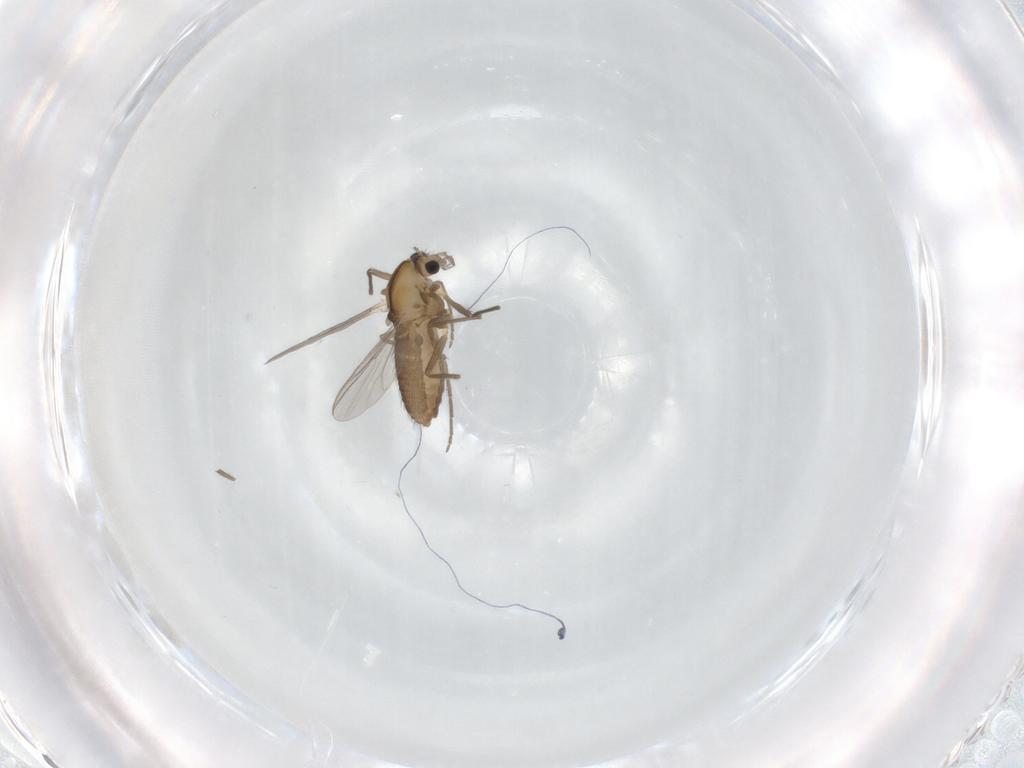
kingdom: Animalia
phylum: Arthropoda
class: Insecta
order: Diptera
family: Chironomidae
